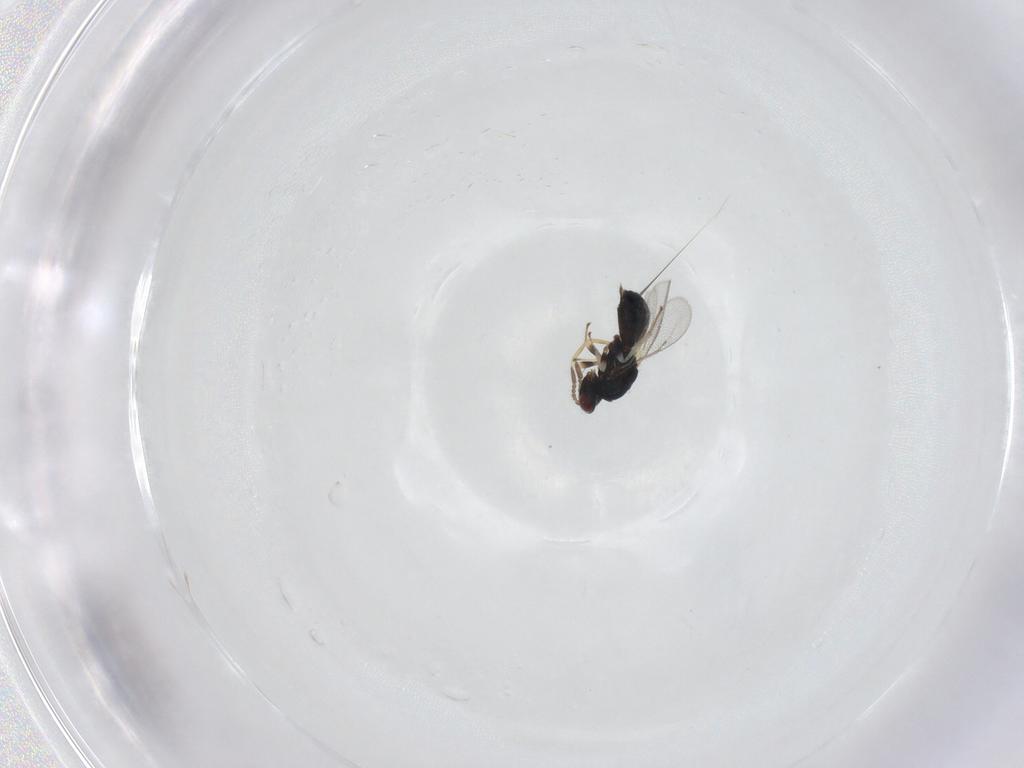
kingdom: Animalia
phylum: Arthropoda
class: Insecta
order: Hymenoptera
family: Eulophidae
